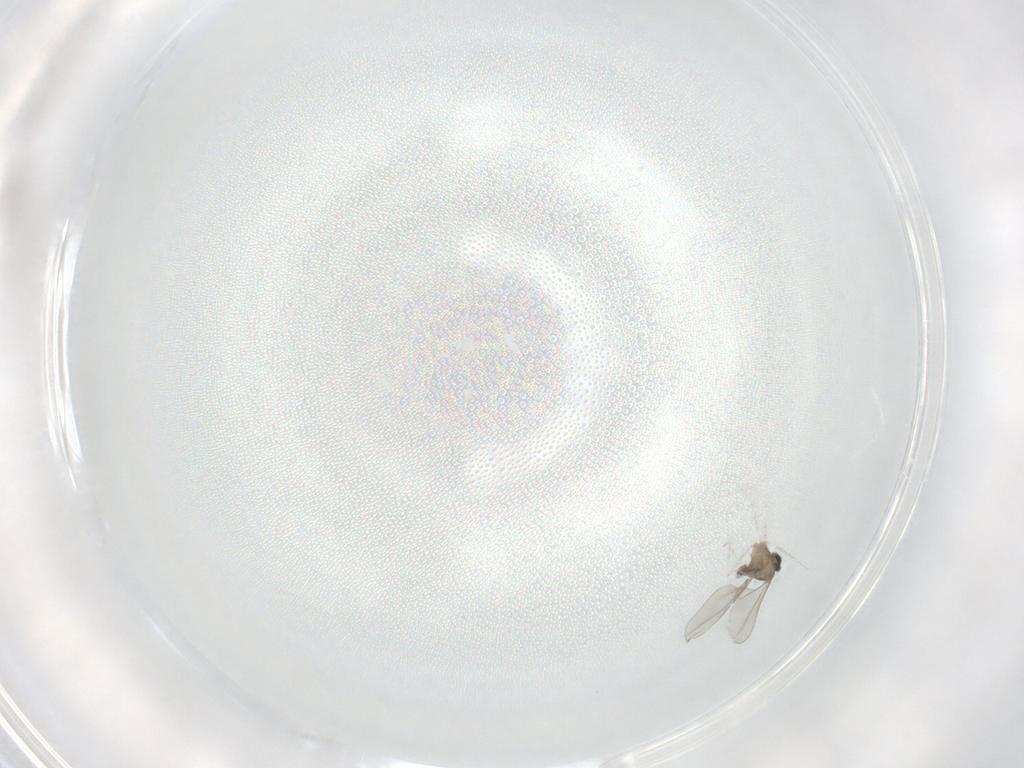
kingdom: Animalia
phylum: Arthropoda
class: Insecta
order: Diptera
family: Cecidomyiidae
